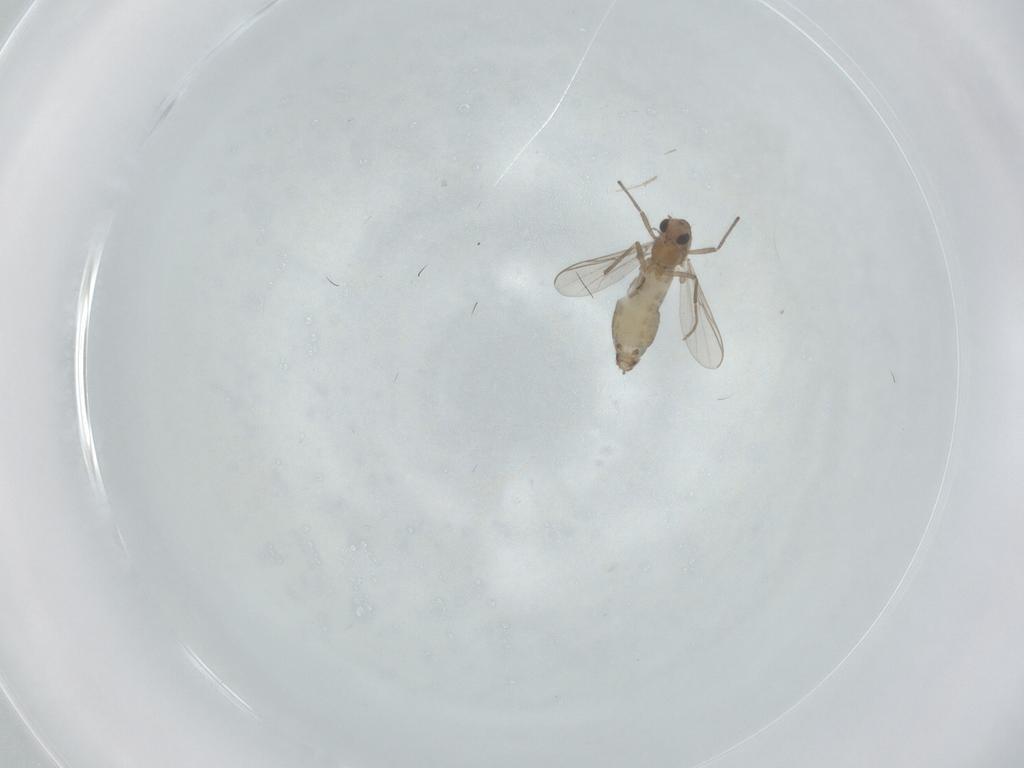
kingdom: Animalia
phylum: Arthropoda
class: Insecta
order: Diptera
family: Chironomidae
